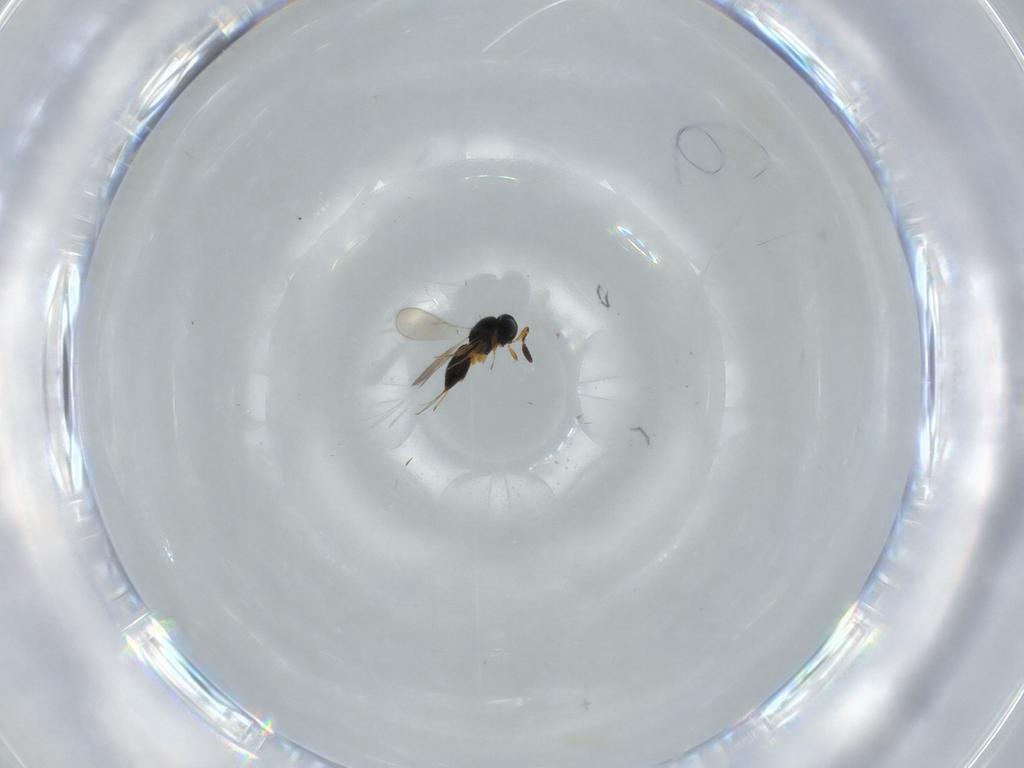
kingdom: Animalia
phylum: Arthropoda
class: Insecta
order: Hymenoptera
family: Scelionidae
